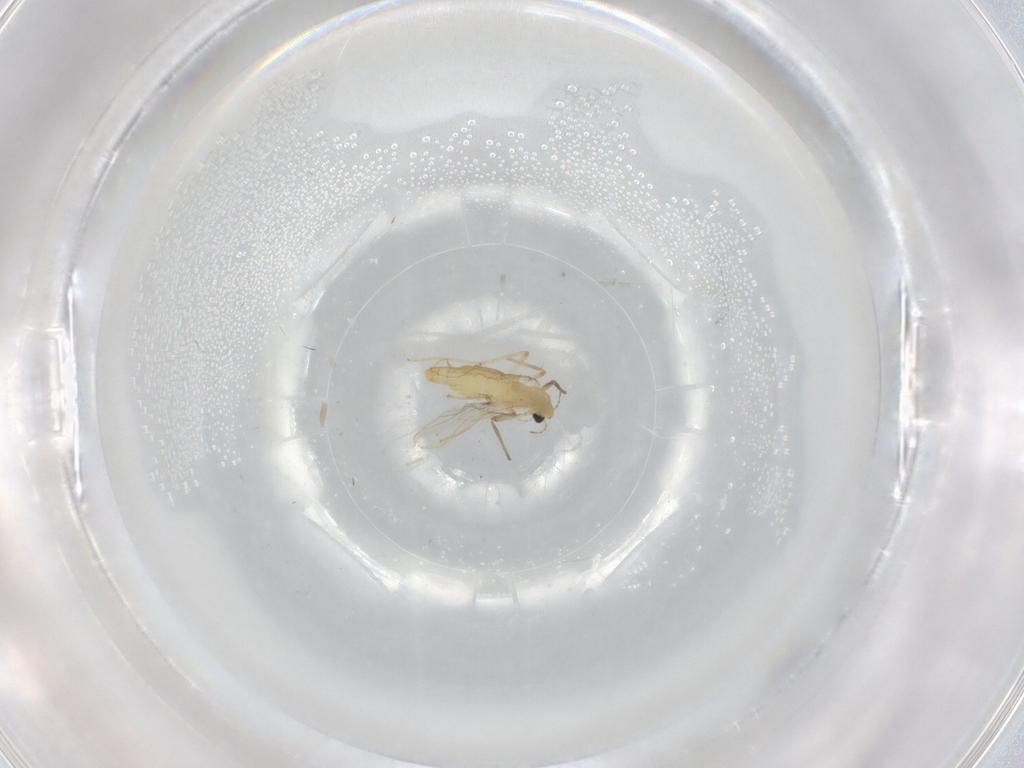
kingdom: Animalia
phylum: Arthropoda
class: Insecta
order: Diptera
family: Chironomidae
